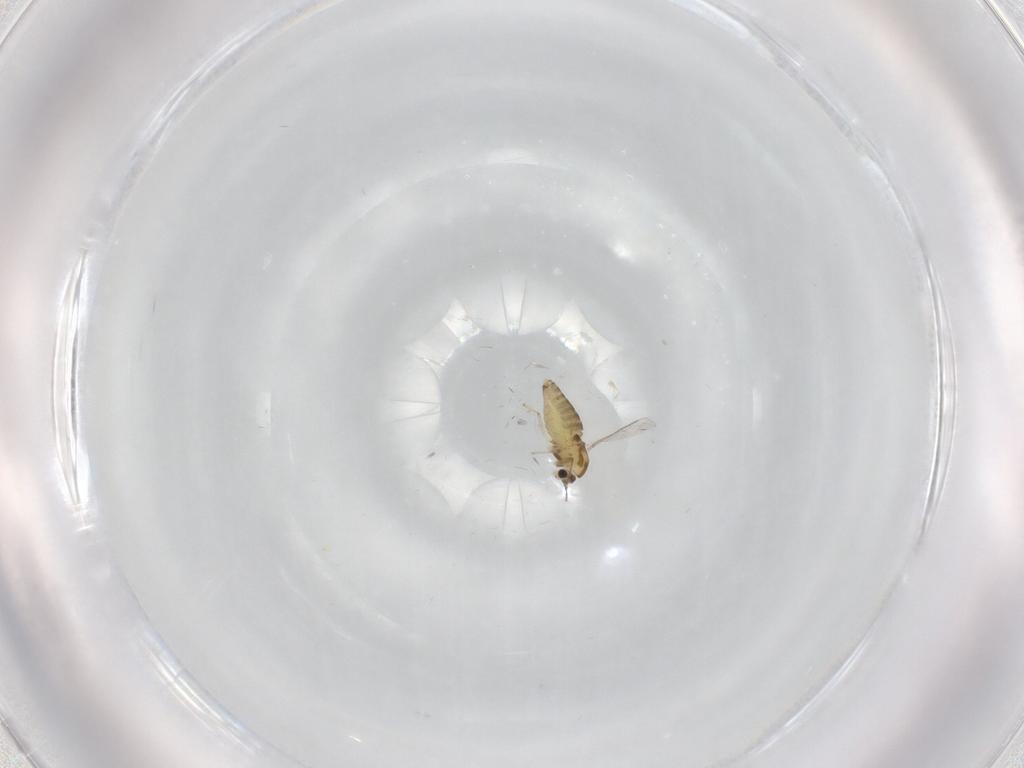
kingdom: Animalia
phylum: Arthropoda
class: Insecta
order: Diptera
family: Chironomidae
